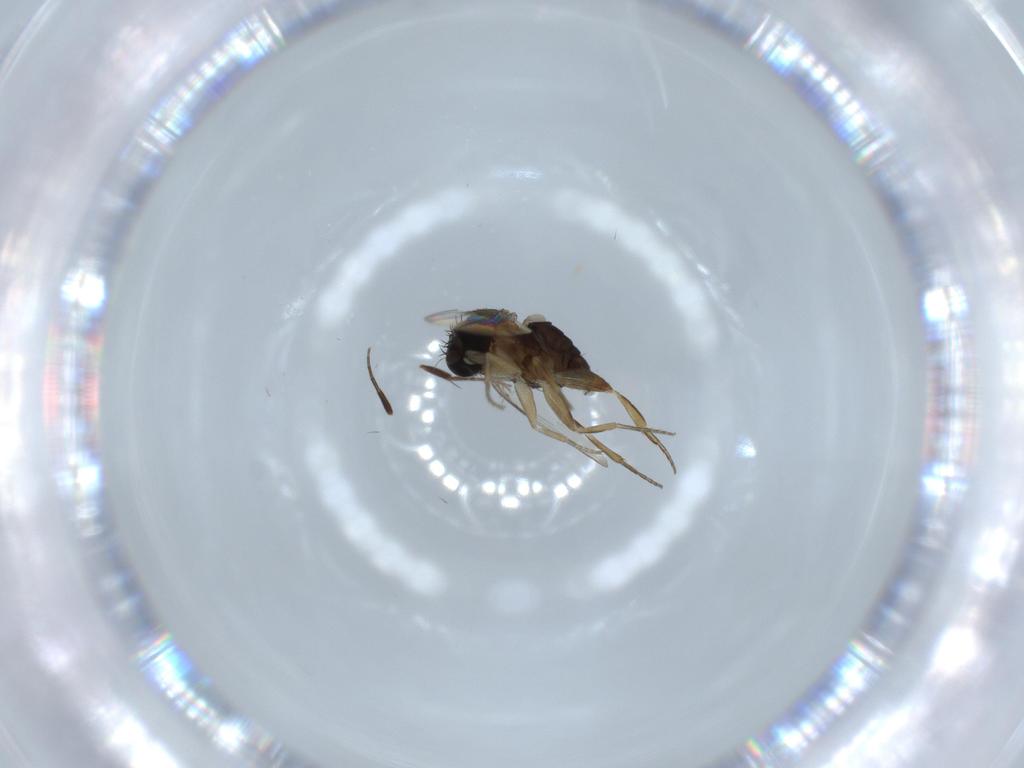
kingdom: Animalia
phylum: Arthropoda
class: Insecta
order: Diptera
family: Phoridae
